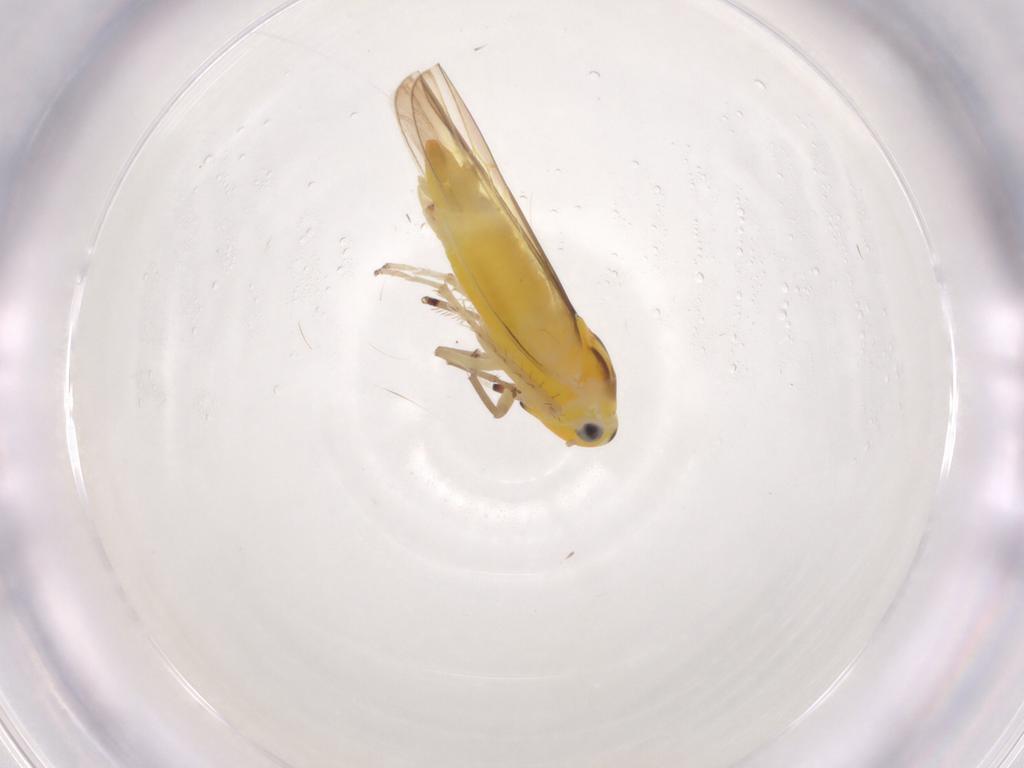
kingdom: Animalia
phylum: Arthropoda
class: Insecta
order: Hemiptera
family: Cicadellidae
